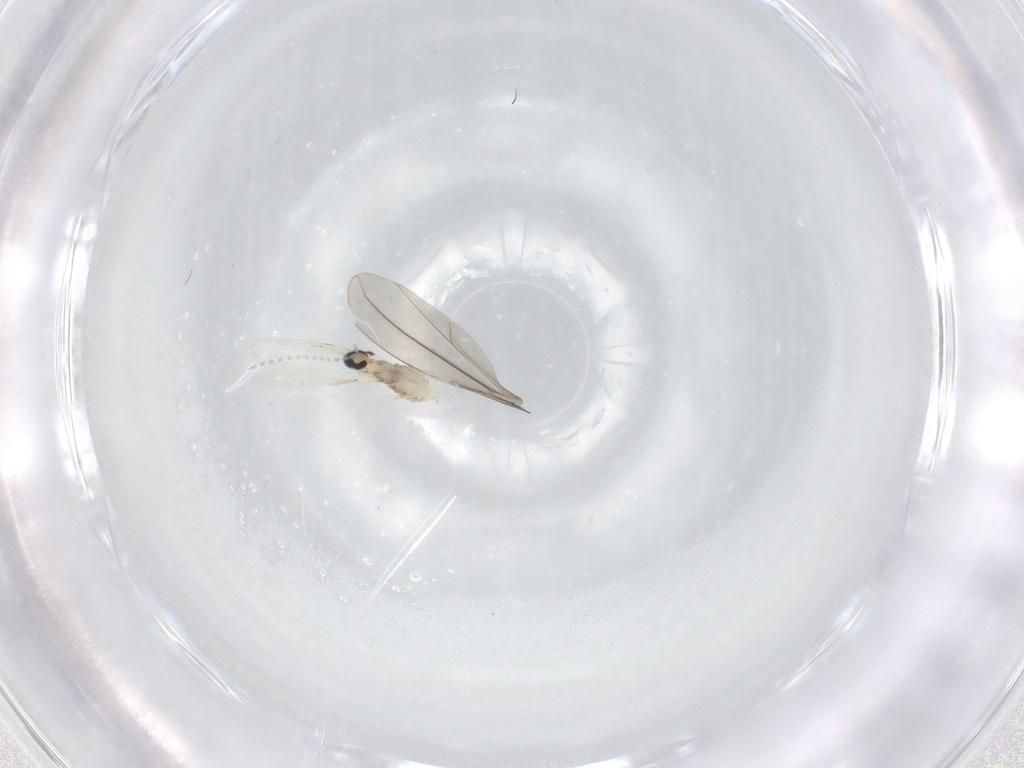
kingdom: Animalia
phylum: Arthropoda
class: Insecta
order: Diptera
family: Cecidomyiidae
